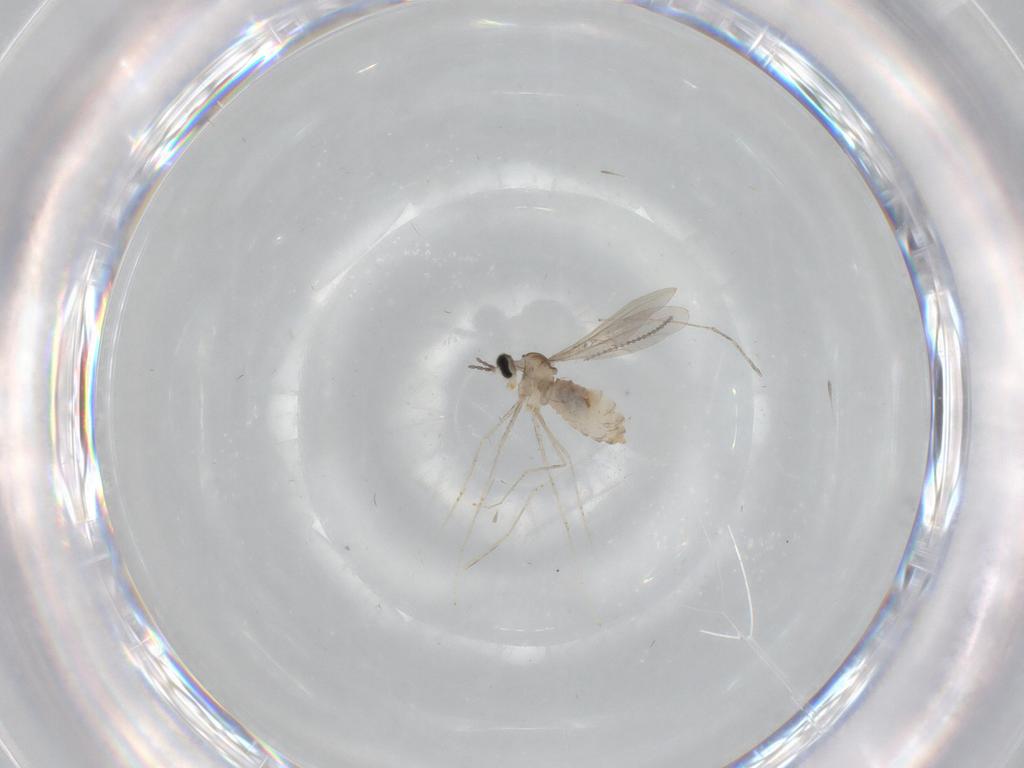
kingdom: Animalia
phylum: Arthropoda
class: Insecta
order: Diptera
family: Cecidomyiidae
